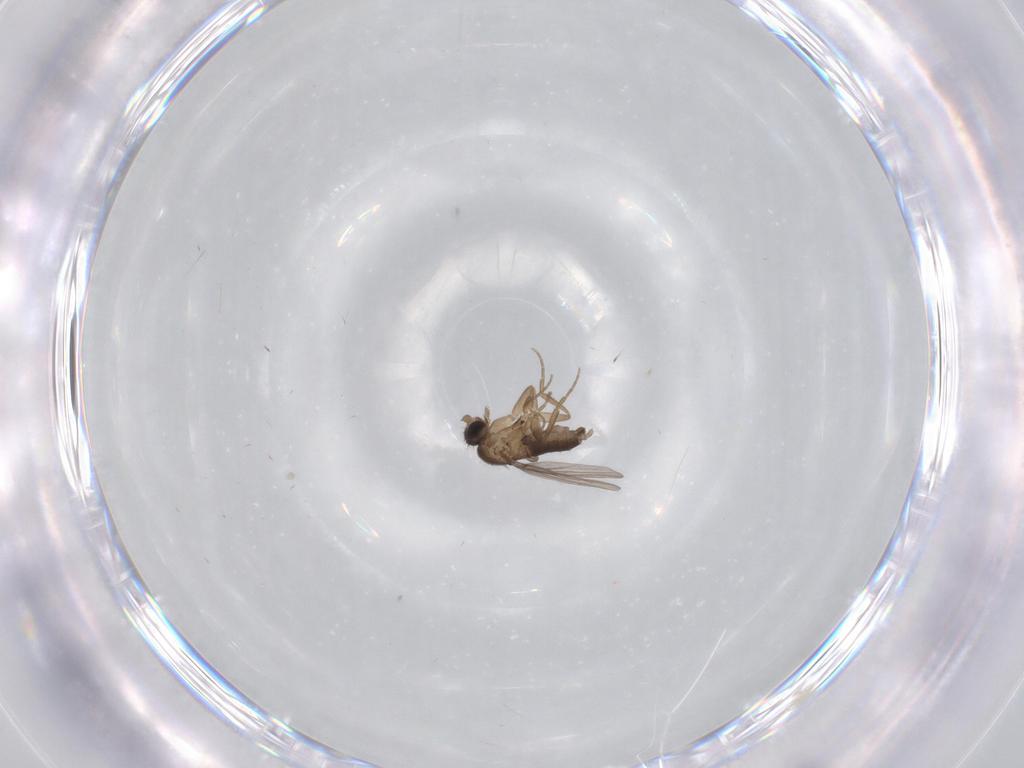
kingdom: Animalia
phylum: Arthropoda
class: Insecta
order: Diptera
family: Phoridae
